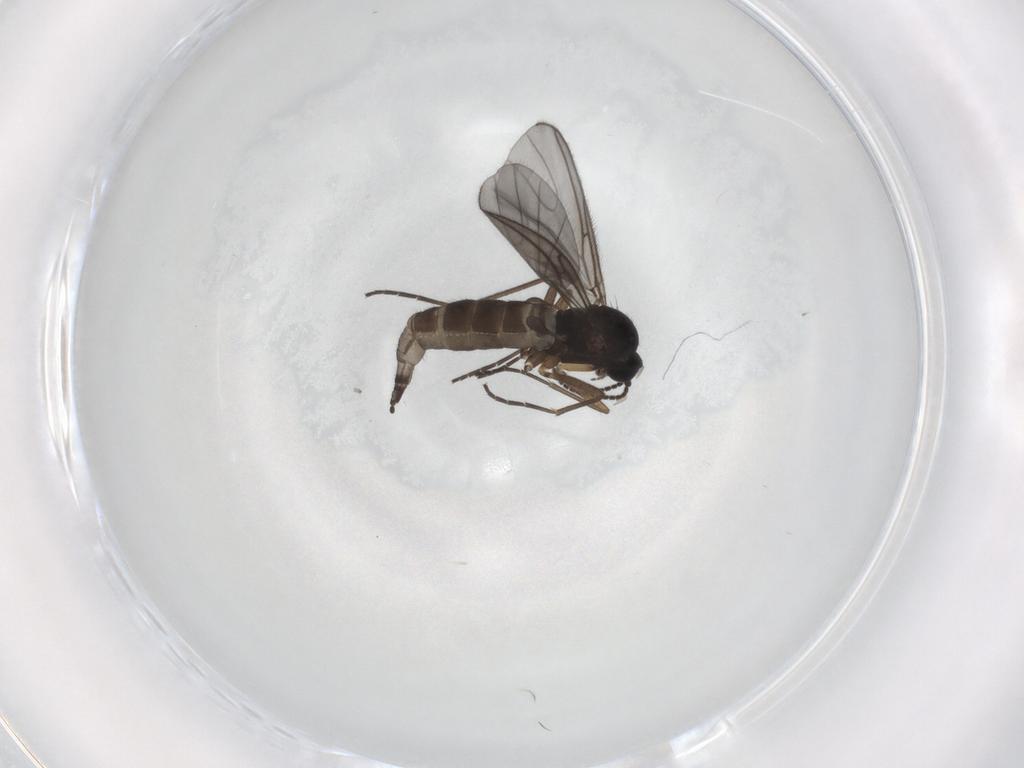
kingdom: Animalia
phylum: Arthropoda
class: Insecta
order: Diptera
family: Sciaridae
